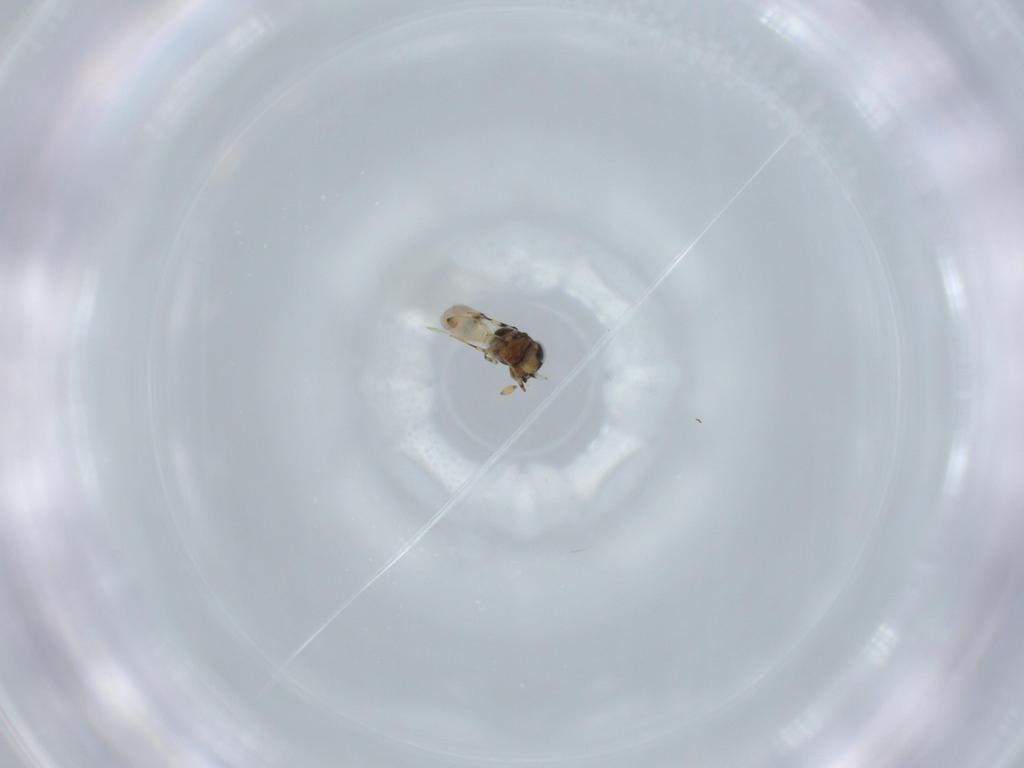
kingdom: Animalia
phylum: Arthropoda
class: Insecta
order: Hymenoptera
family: Scelionidae
